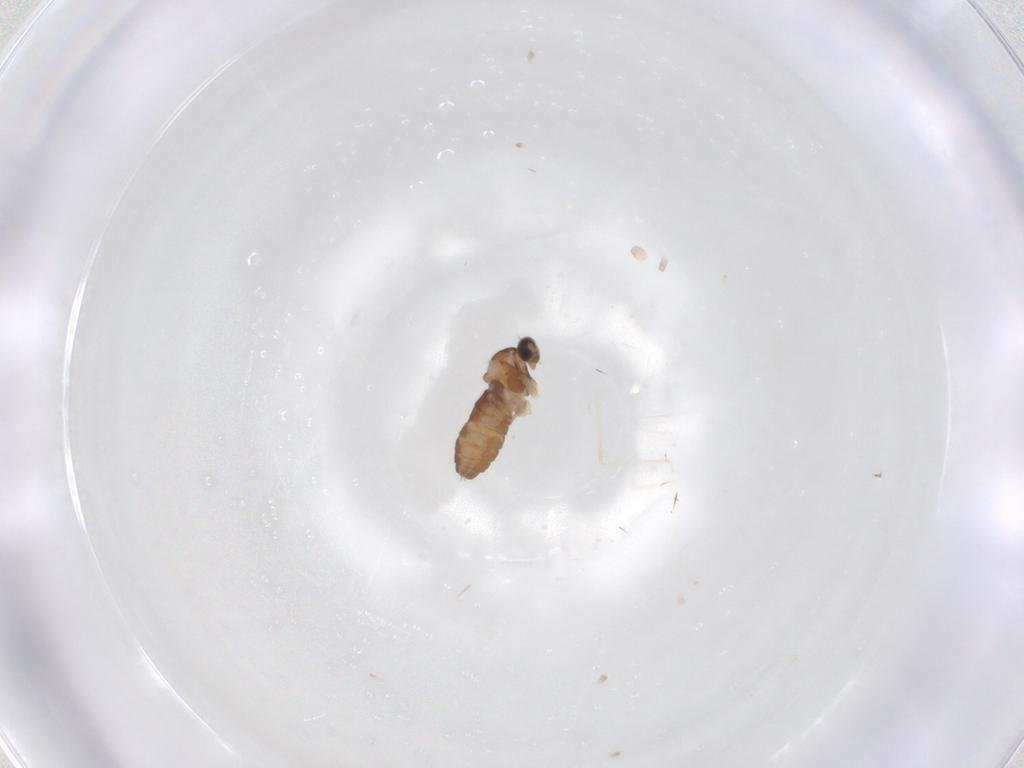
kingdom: Animalia
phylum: Arthropoda
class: Insecta
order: Diptera
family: Cecidomyiidae
